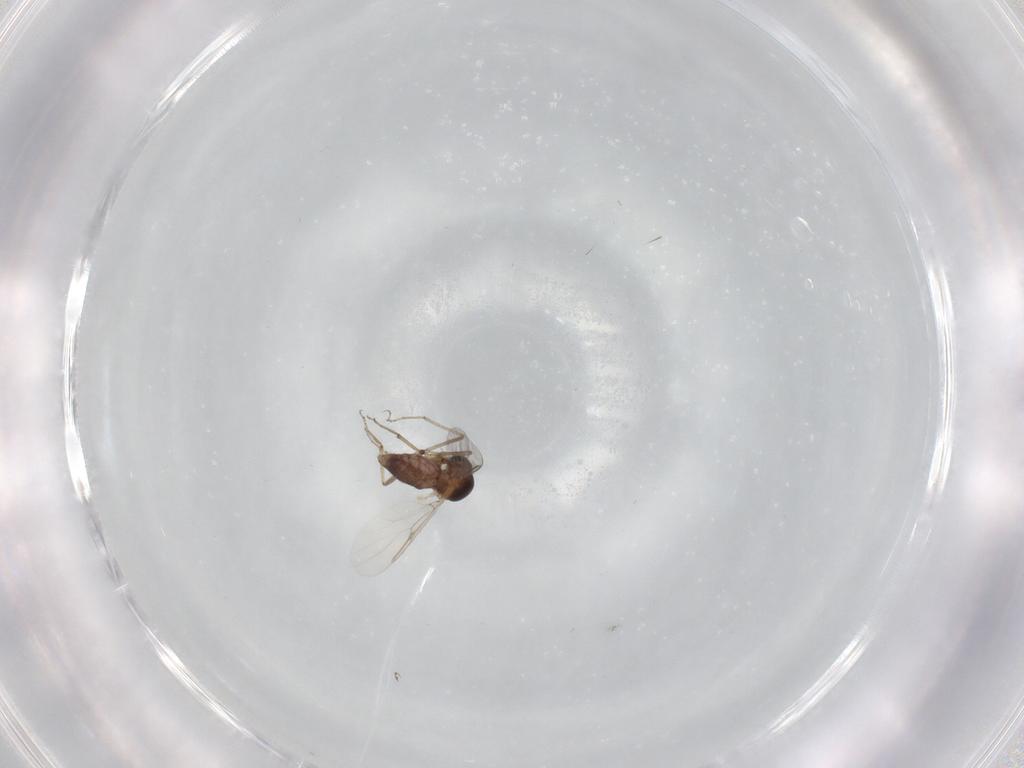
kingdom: Animalia
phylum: Arthropoda
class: Insecta
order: Diptera
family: Ceratopogonidae
